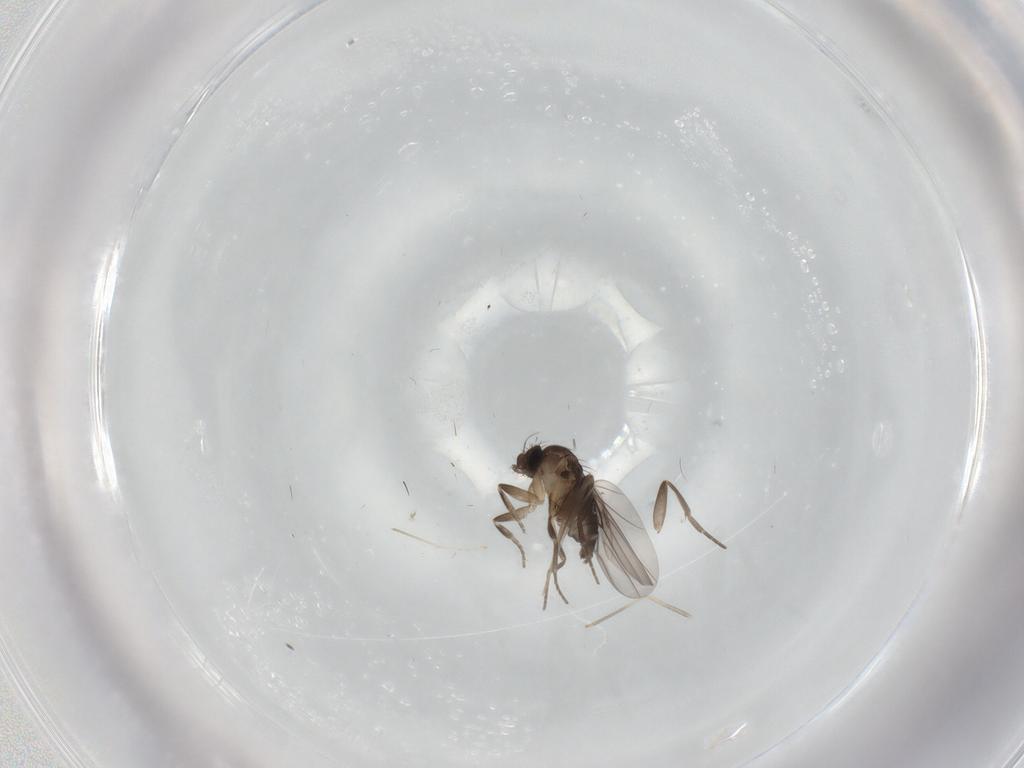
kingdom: Animalia
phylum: Arthropoda
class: Insecta
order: Diptera
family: Cecidomyiidae
